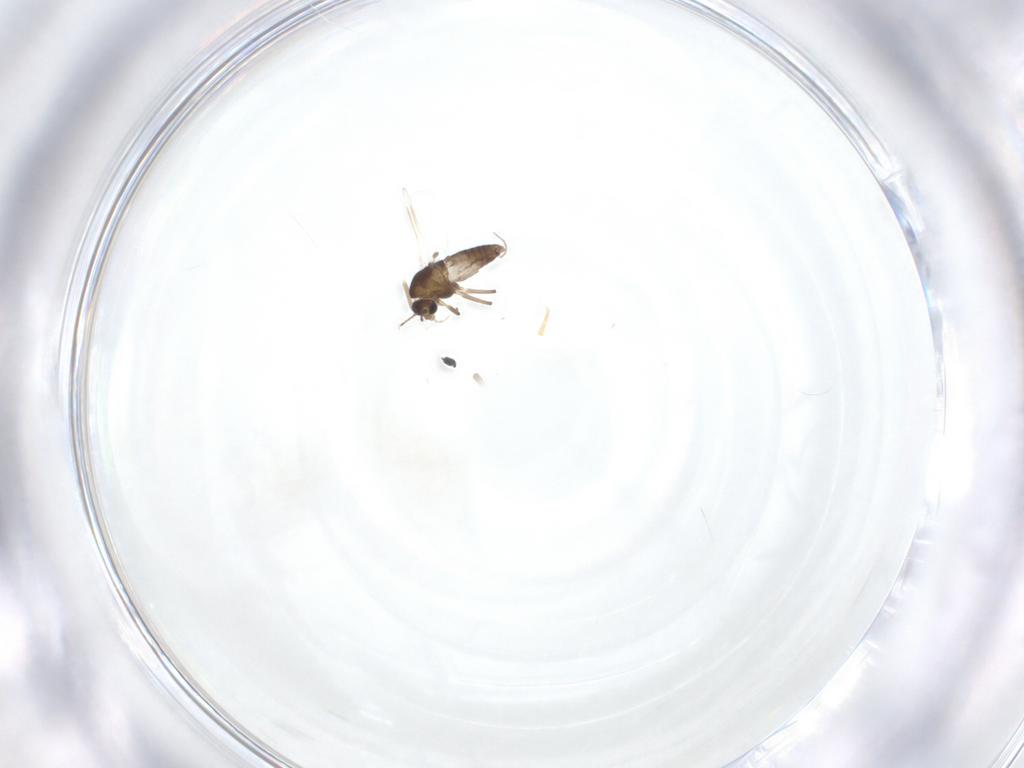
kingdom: Animalia
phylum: Arthropoda
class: Insecta
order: Diptera
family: Chironomidae
